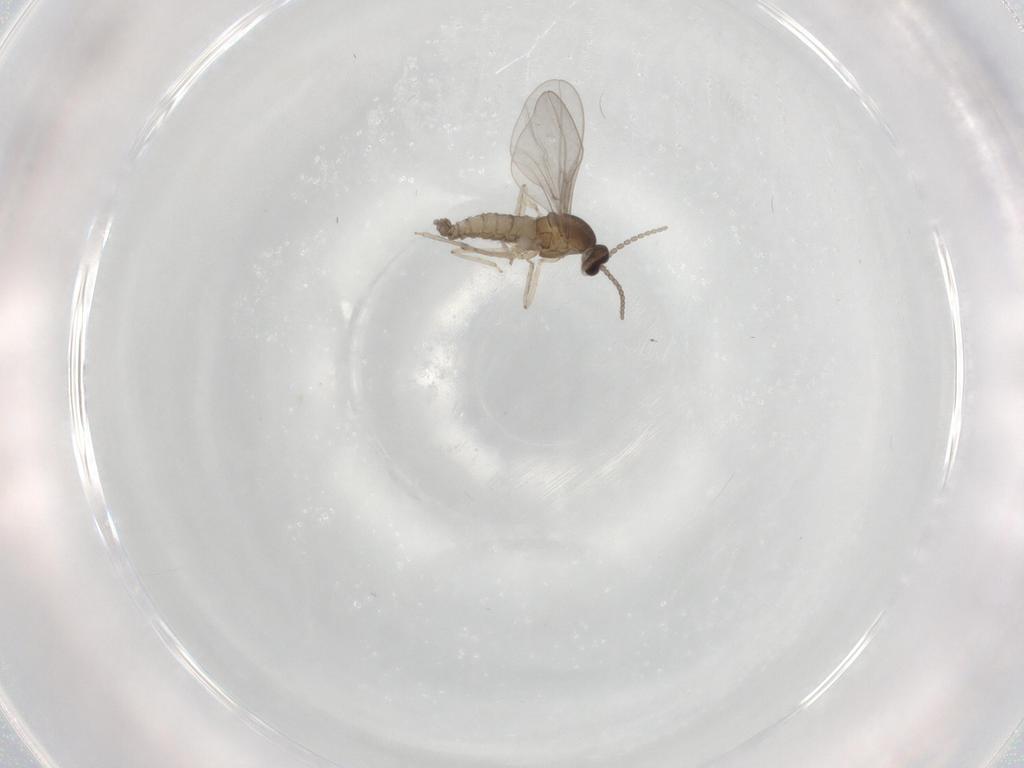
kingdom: Animalia
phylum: Arthropoda
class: Insecta
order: Diptera
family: Cecidomyiidae
